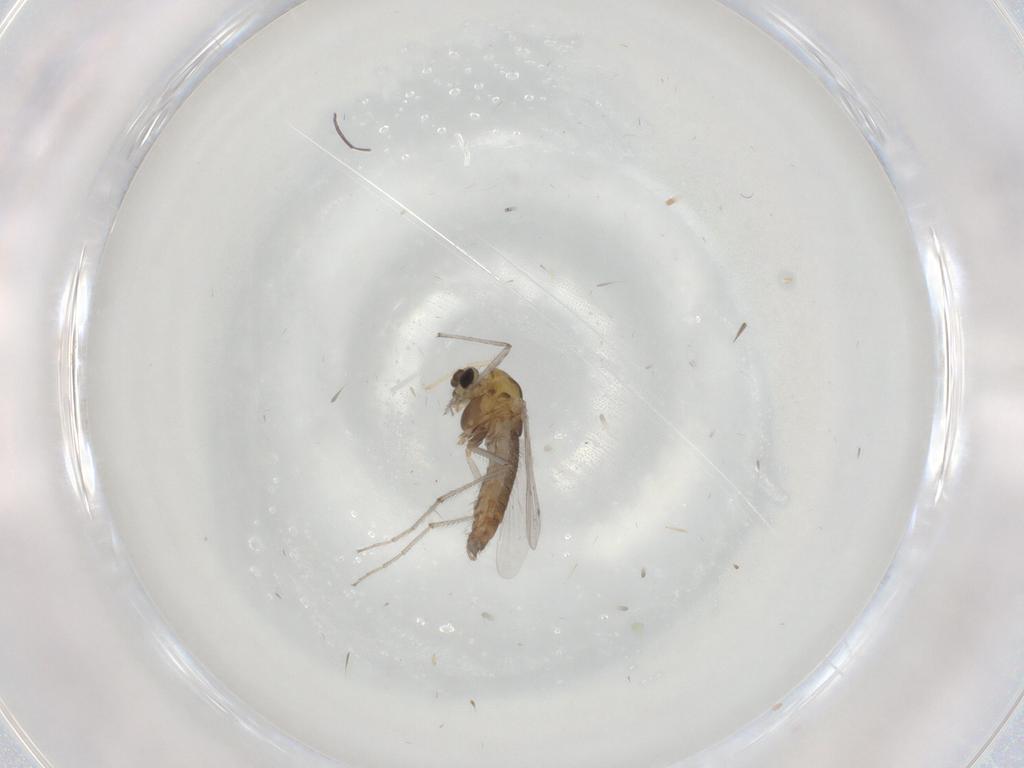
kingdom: Animalia
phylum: Arthropoda
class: Insecta
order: Diptera
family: Chironomidae
